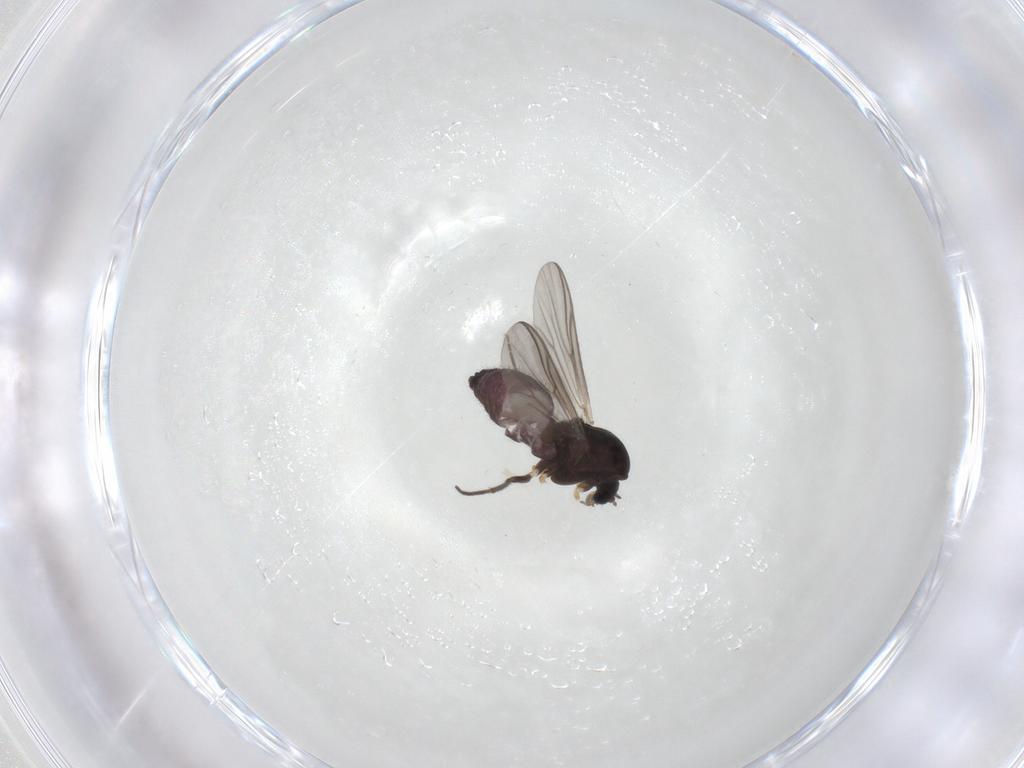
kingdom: Animalia
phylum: Arthropoda
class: Insecta
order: Diptera
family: Chironomidae
